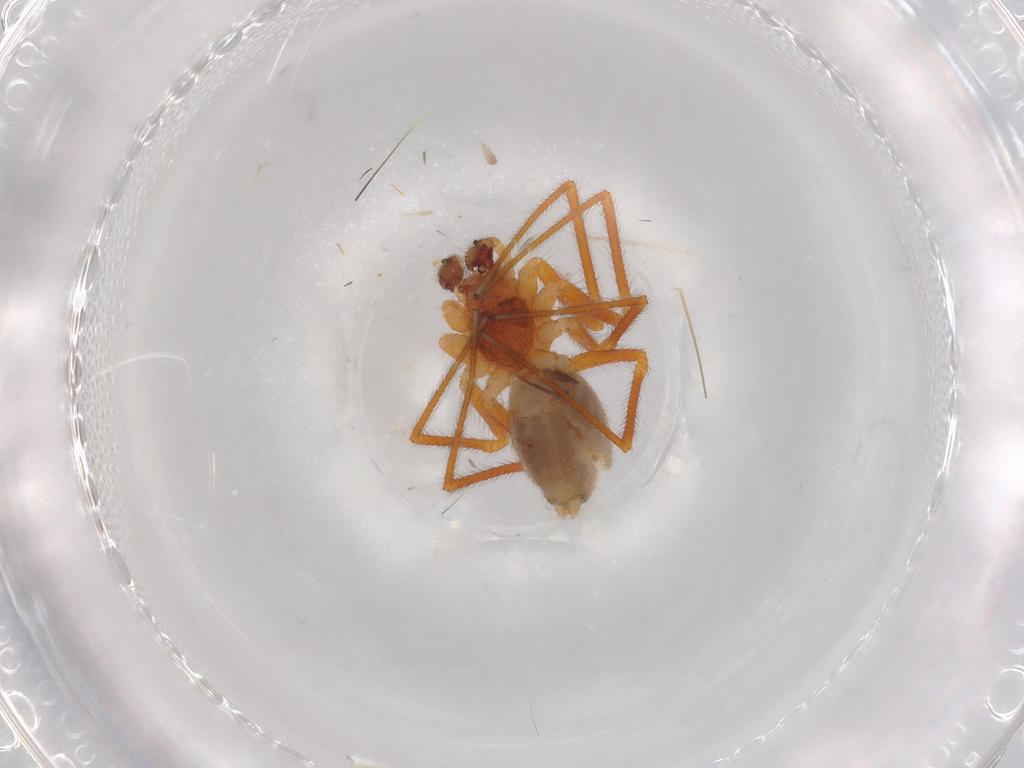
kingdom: Animalia
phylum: Arthropoda
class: Arachnida
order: Araneae
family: Linyphiidae
